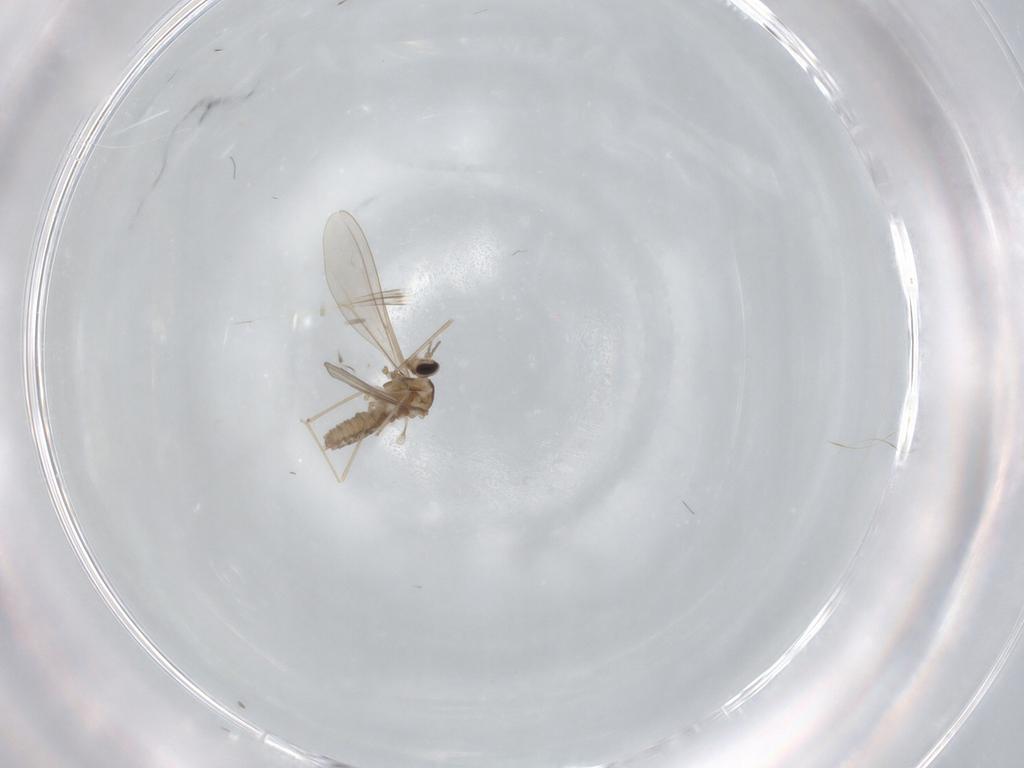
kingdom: Animalia
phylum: Arthropoda
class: Insecta
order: Diptera
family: Cecidomyiidae
